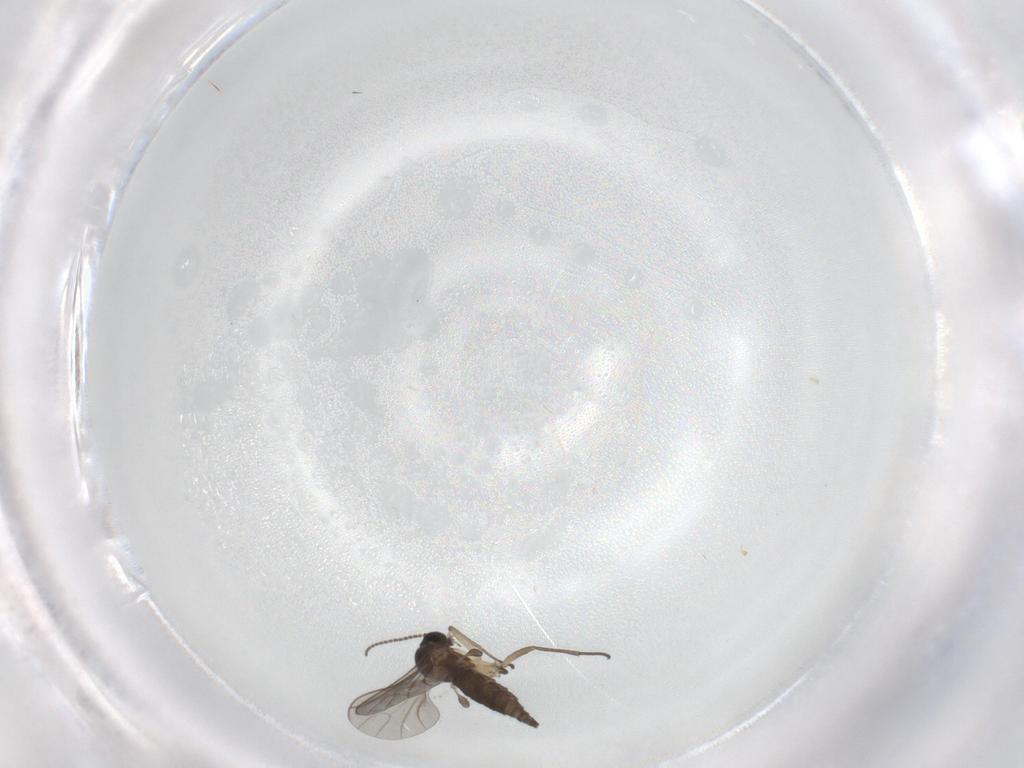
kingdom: Animalia
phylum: Arthropoda
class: Insecta
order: Diptera
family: Sciaridae
